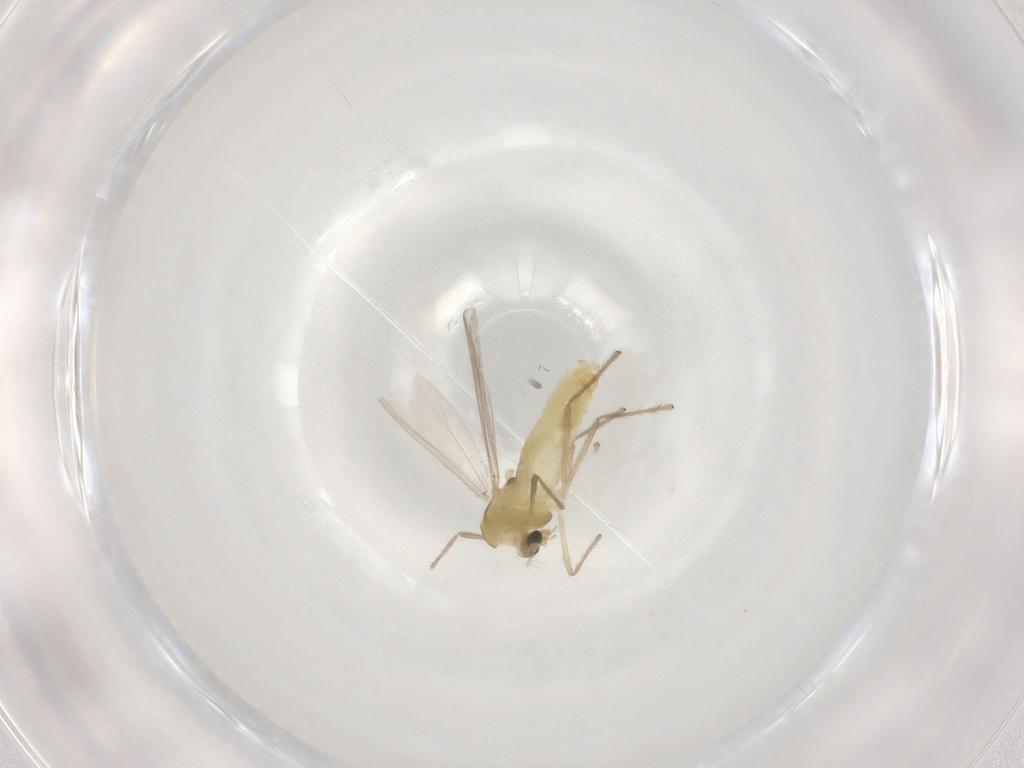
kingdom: Animalia
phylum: Arthropoda
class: Insecta
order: Diptera
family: Chironomidae
